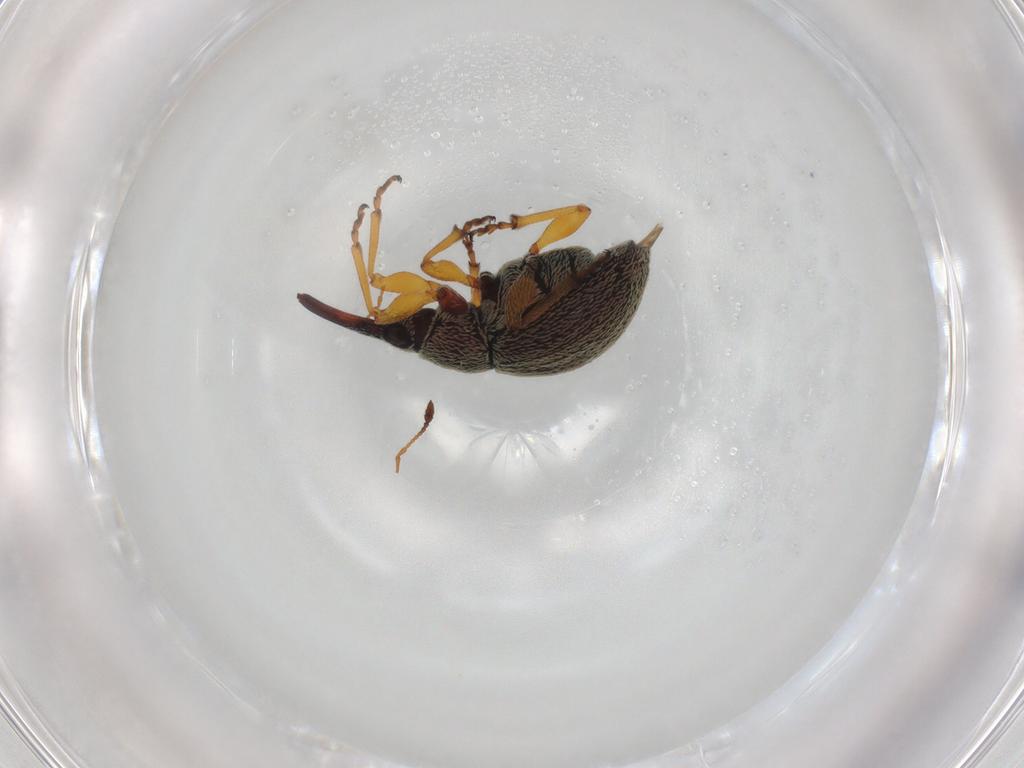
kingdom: Animalia
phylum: Arthropoda
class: Insecta
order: Coleoptera
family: Brentidae
